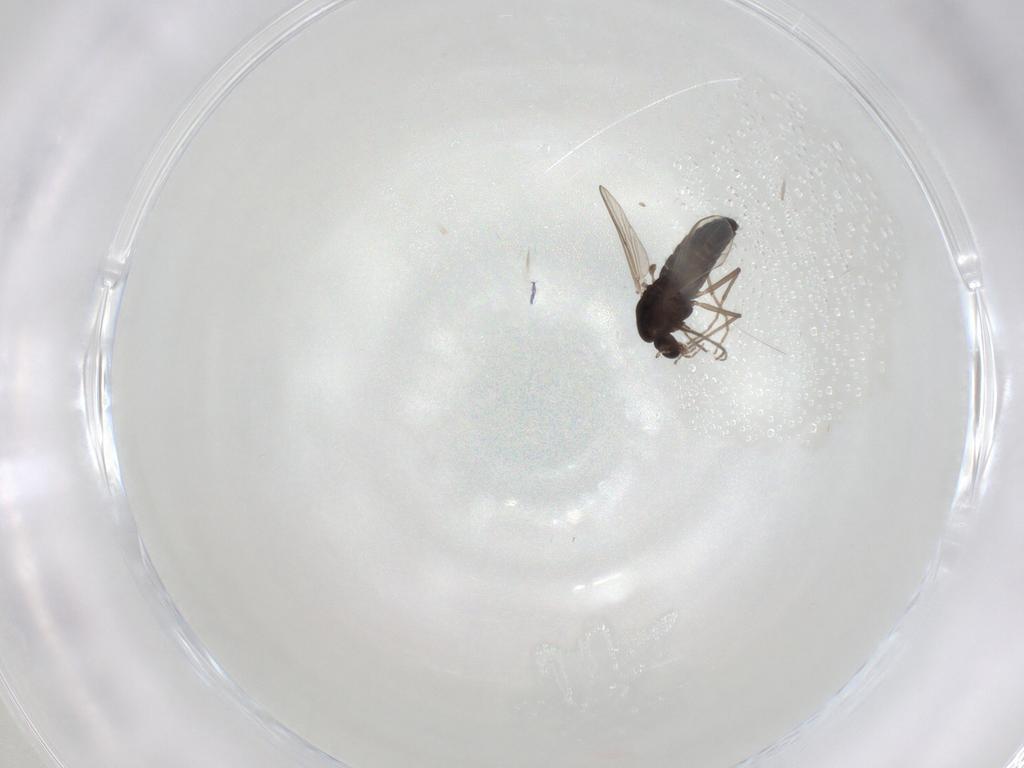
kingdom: Animalia
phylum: Arthropoda
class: Insecta
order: Diptera
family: Chironomidae
